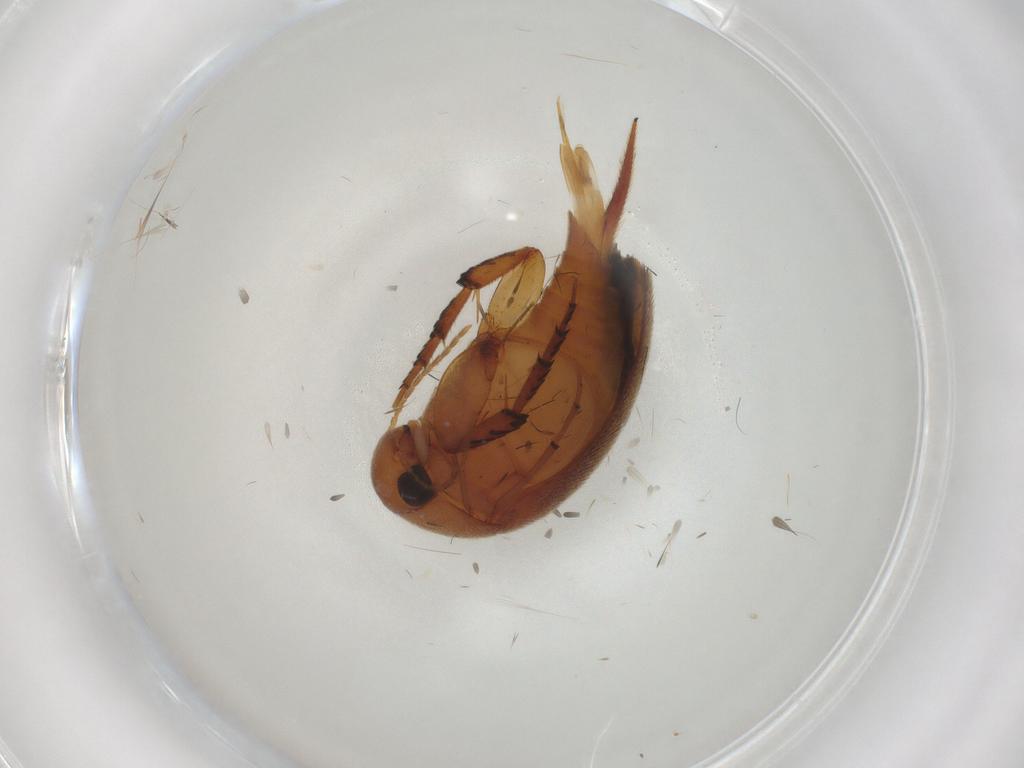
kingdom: Animalia
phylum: Arthropoda
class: Insecta
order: Coleoptera
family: Mordellidae
